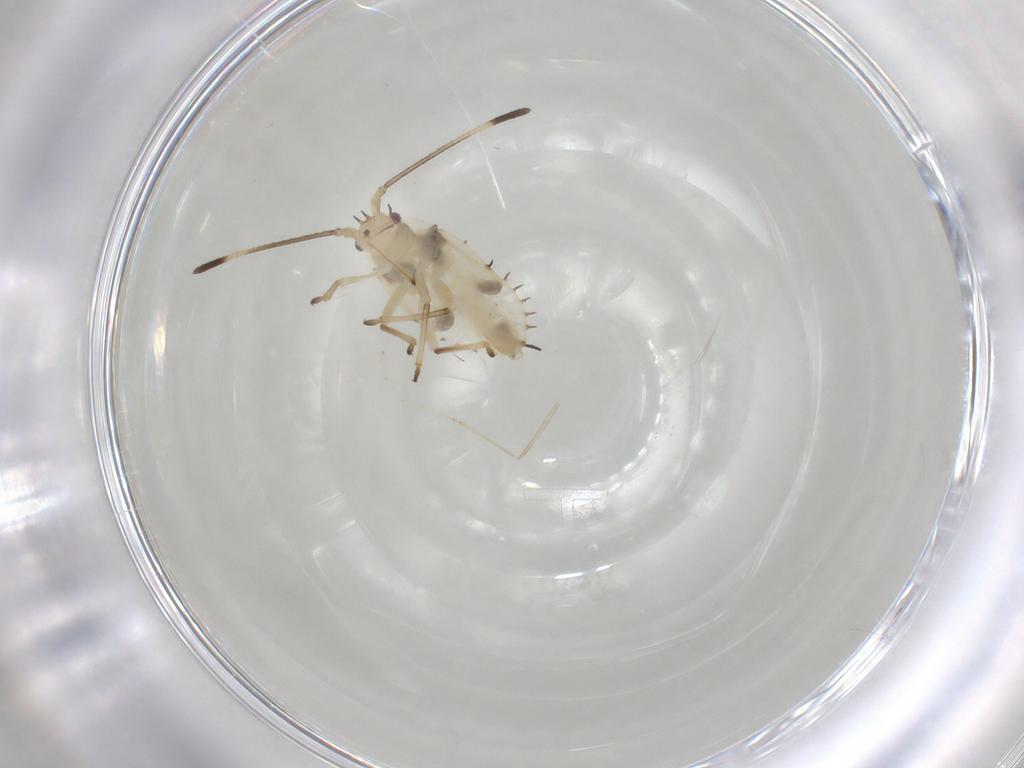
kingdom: Animalia
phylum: Arthropoda
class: Insecta
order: Hemiptera
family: Tingidae
